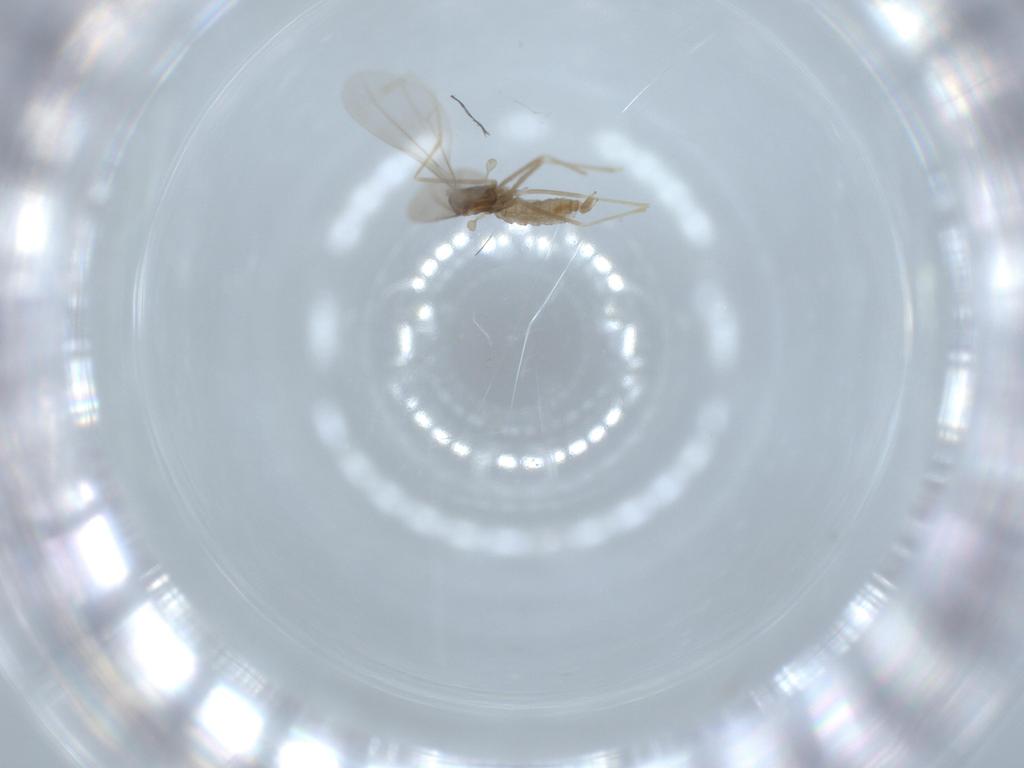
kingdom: Animalia
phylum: Arthropoda
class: Insecta
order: Diptera
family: Cecidomyiidae
